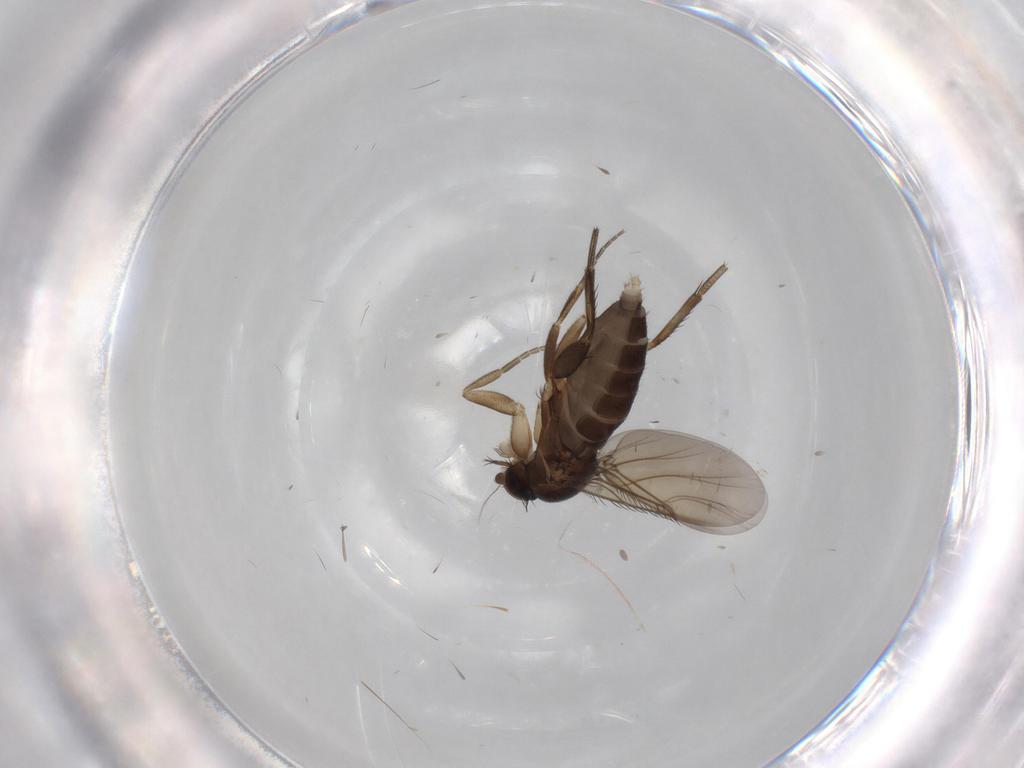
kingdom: Animalia
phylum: Arthropoda
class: Insecta
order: Diptera
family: Phoridae
